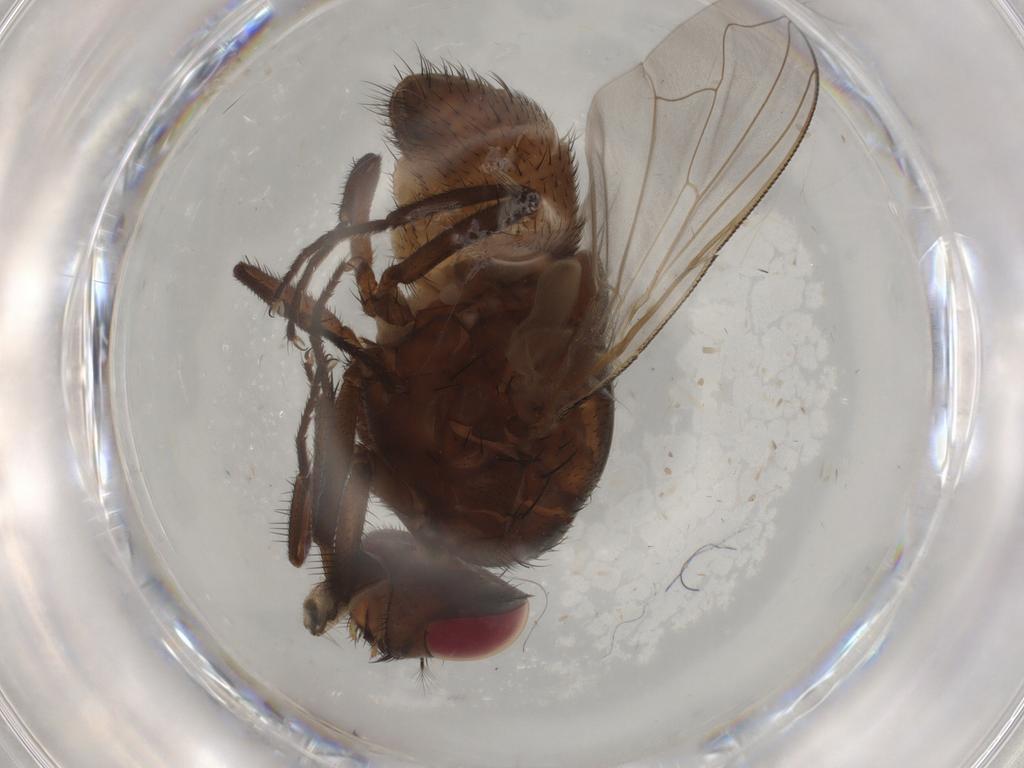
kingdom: Animalia
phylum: Arthropoda
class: Insecta
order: Diptera
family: Muscidae
